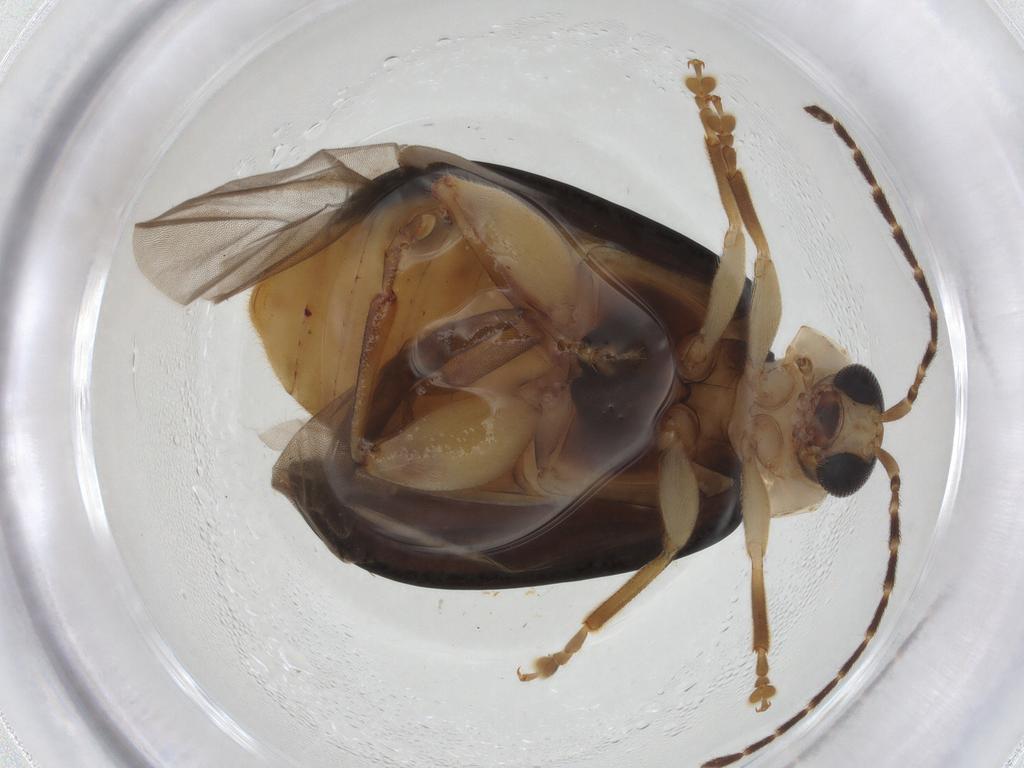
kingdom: Animalia
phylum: Arthropoda
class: Insecta
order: Coleoptera
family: Chrysomelidae
